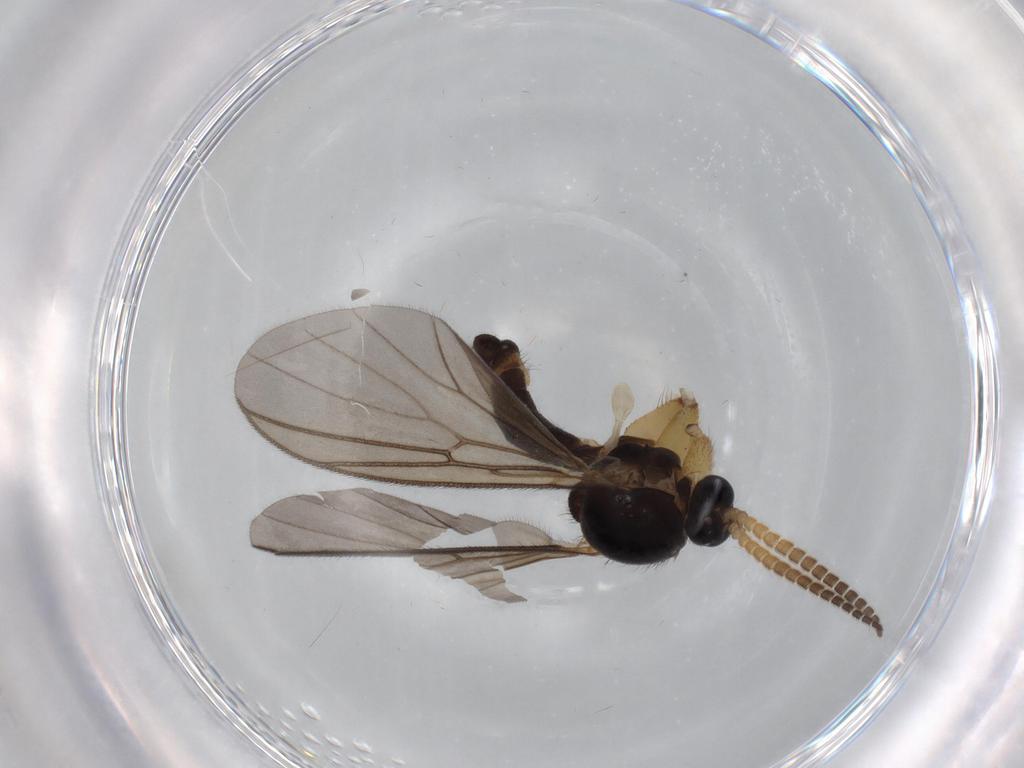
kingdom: Animalia
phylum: Arthropoda
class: Insecta
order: Diptera
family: Mycetophilidae
